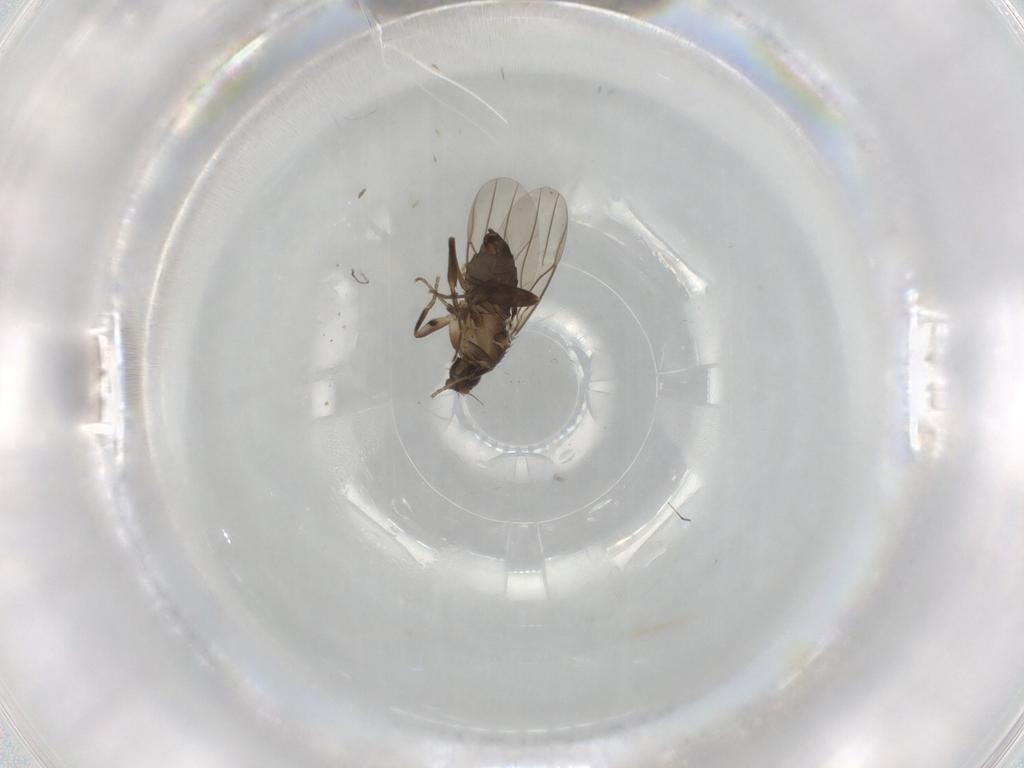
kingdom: Animalia
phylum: Arthropoda
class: Insecta
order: Diptera
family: Phoridae
